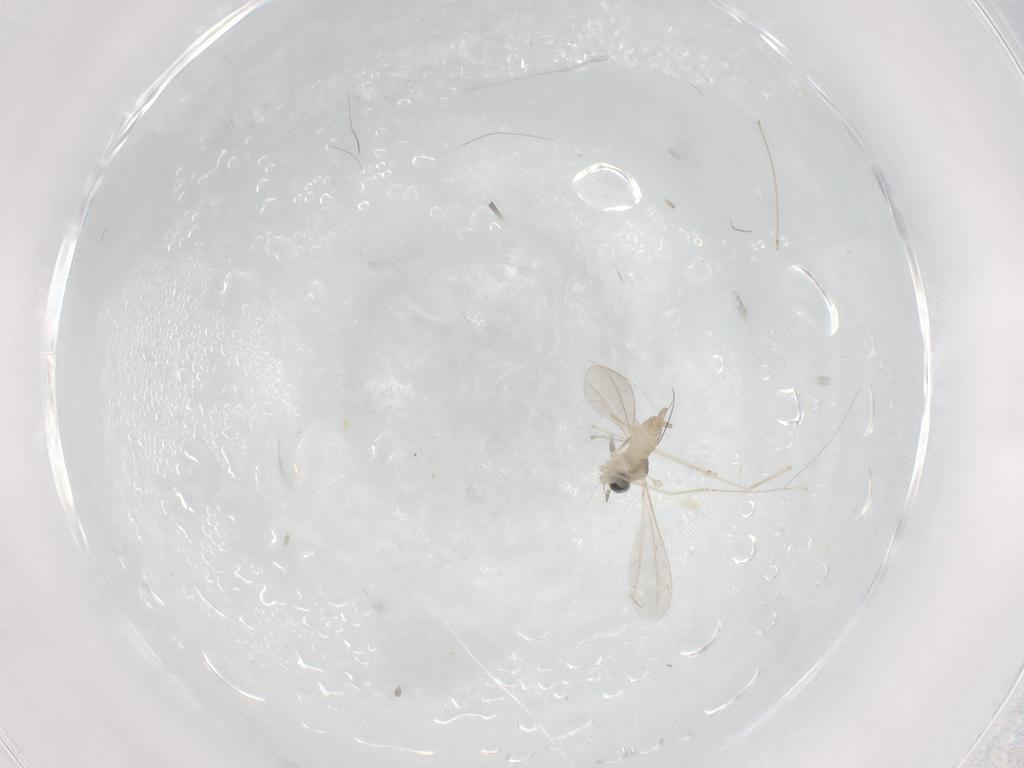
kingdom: Animalia
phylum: Arthropoda
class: Insecta
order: Diptera
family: Cecidomyiidae
